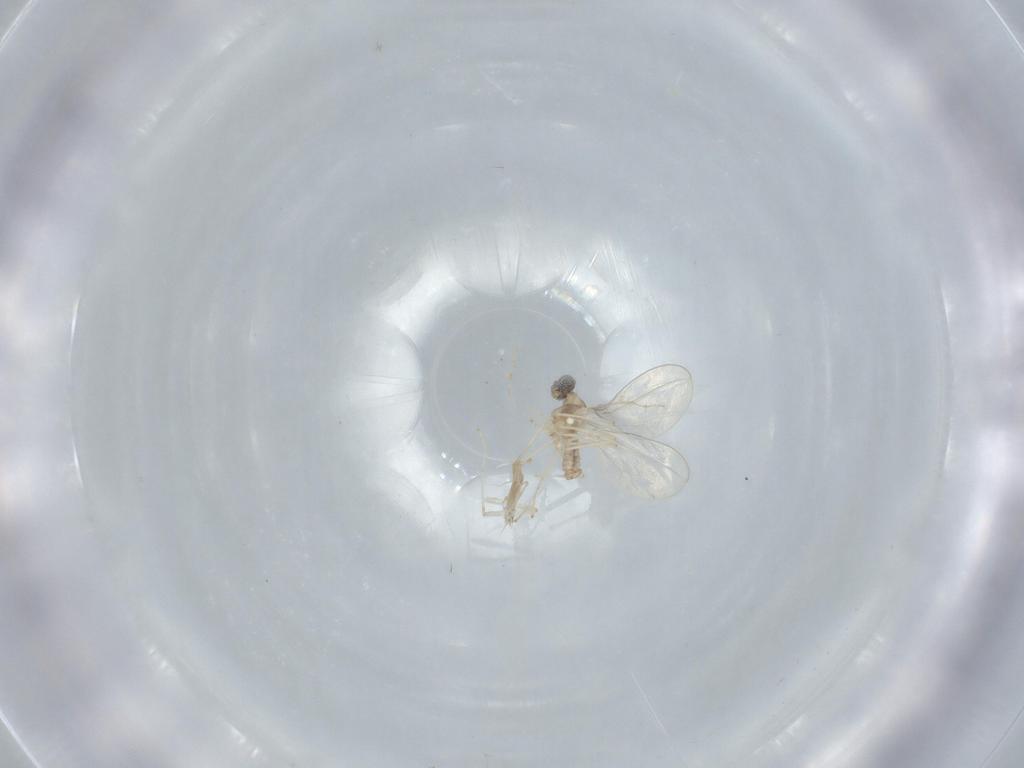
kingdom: Animalia
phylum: Arthropoda
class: Insecta
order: Diptera
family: Cecidomyiidae
